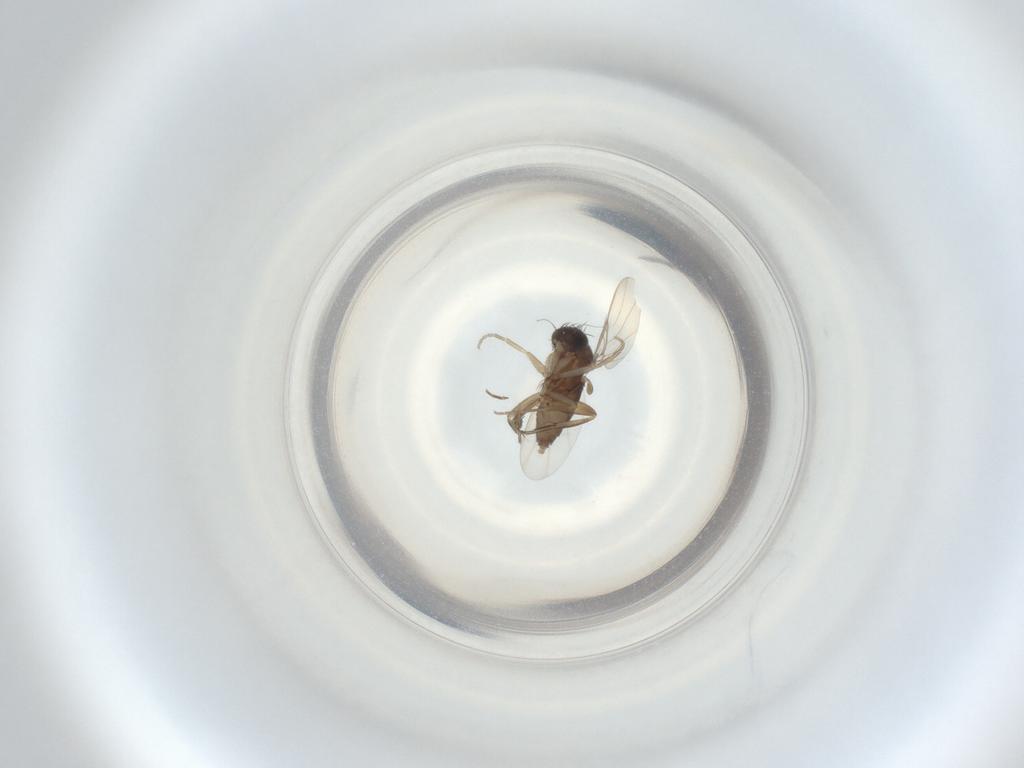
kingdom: Animalia
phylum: Arthropoda
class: Insecta
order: Diptera
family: Phoridae
